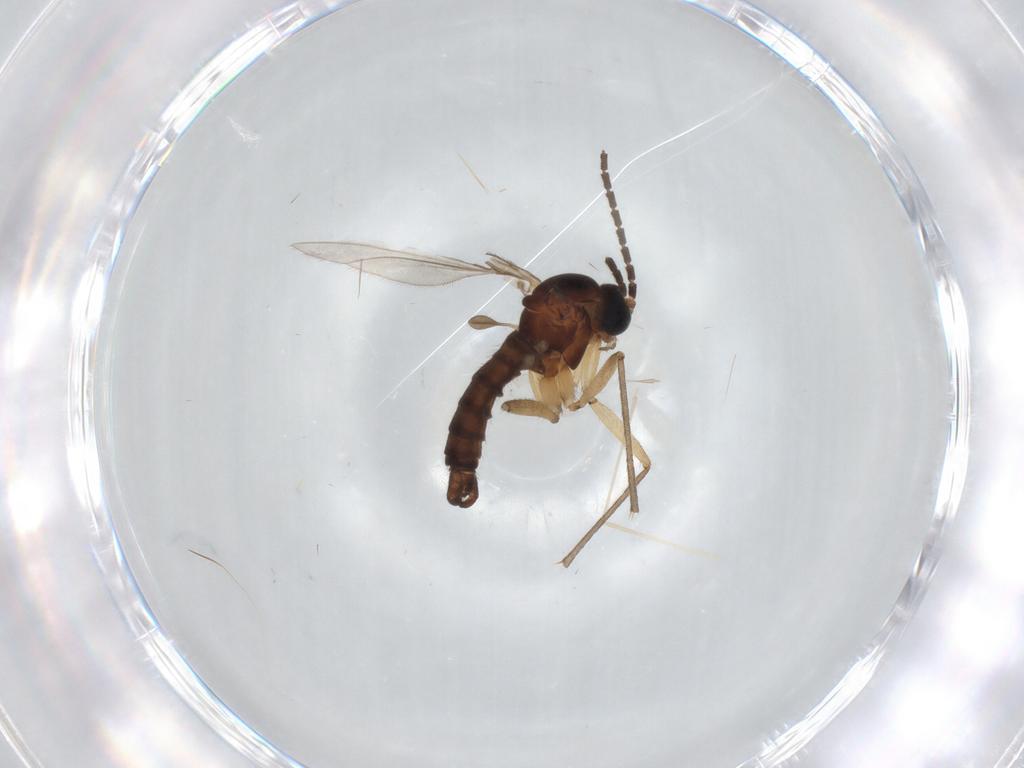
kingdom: Animalia
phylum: Arthropoda
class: Insecta
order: Diptera
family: Sciaridae
